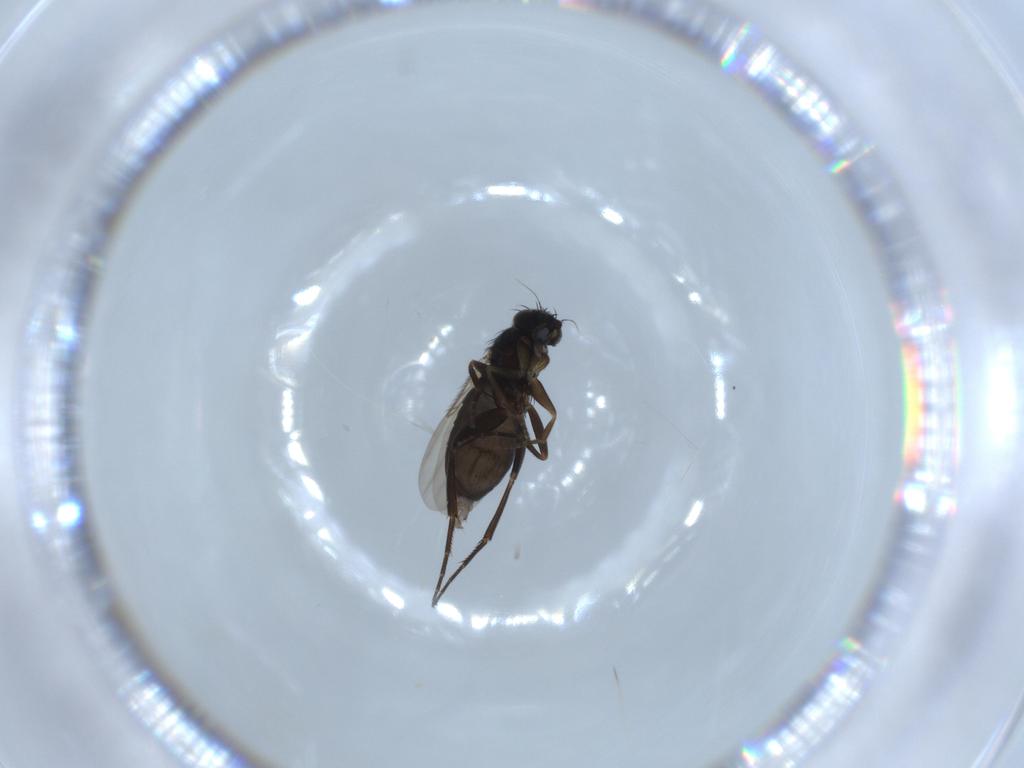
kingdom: Animalia
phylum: Arthropoda
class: Insecta
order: Diptera
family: Phoridae
